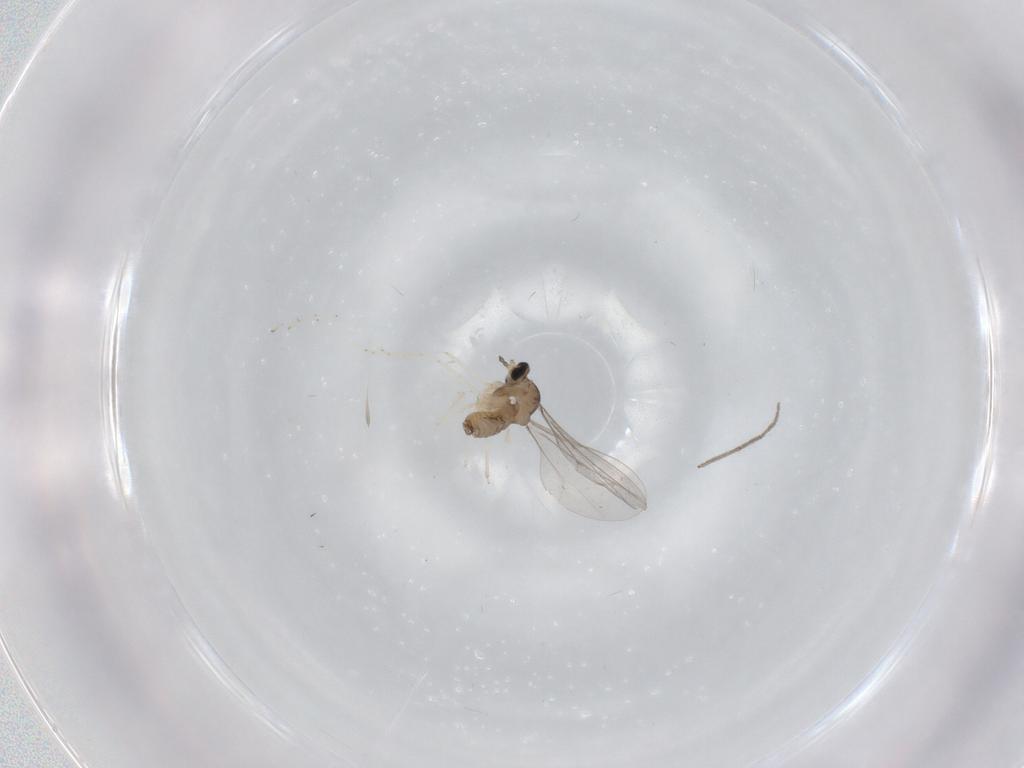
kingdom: Animalia
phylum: Arthropoda
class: Insecta
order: Diptera
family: Cecidomyiidae
